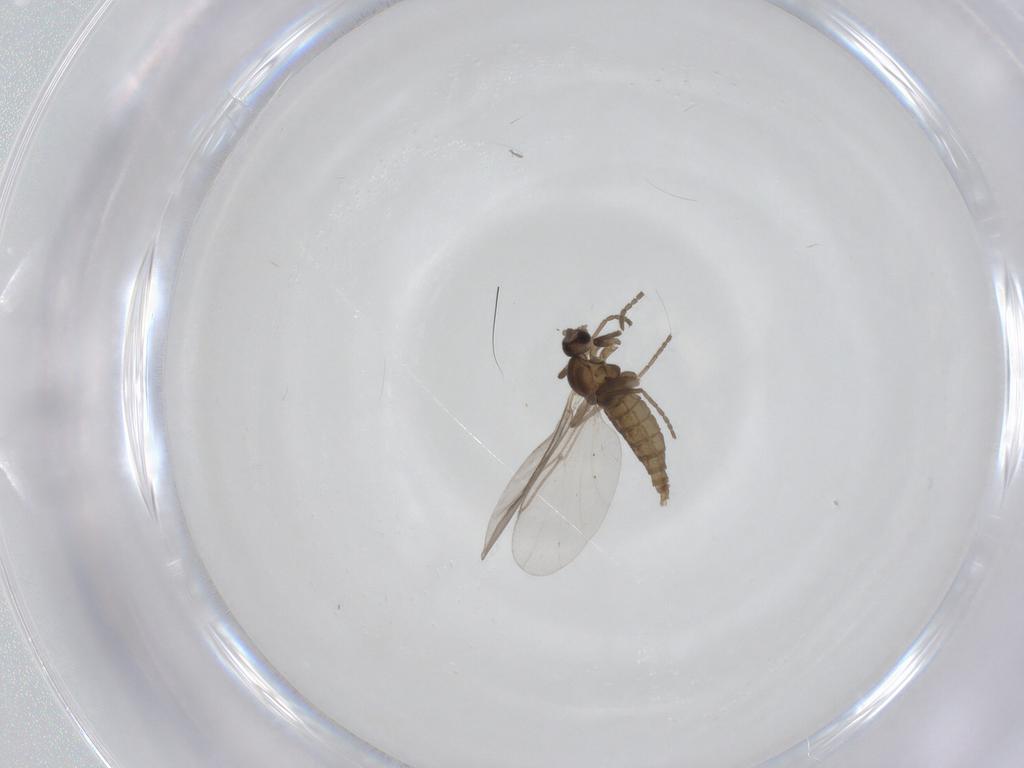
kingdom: Animalia
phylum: Arthropoda
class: Insecta
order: Diptera
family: Cecidomyiidae
